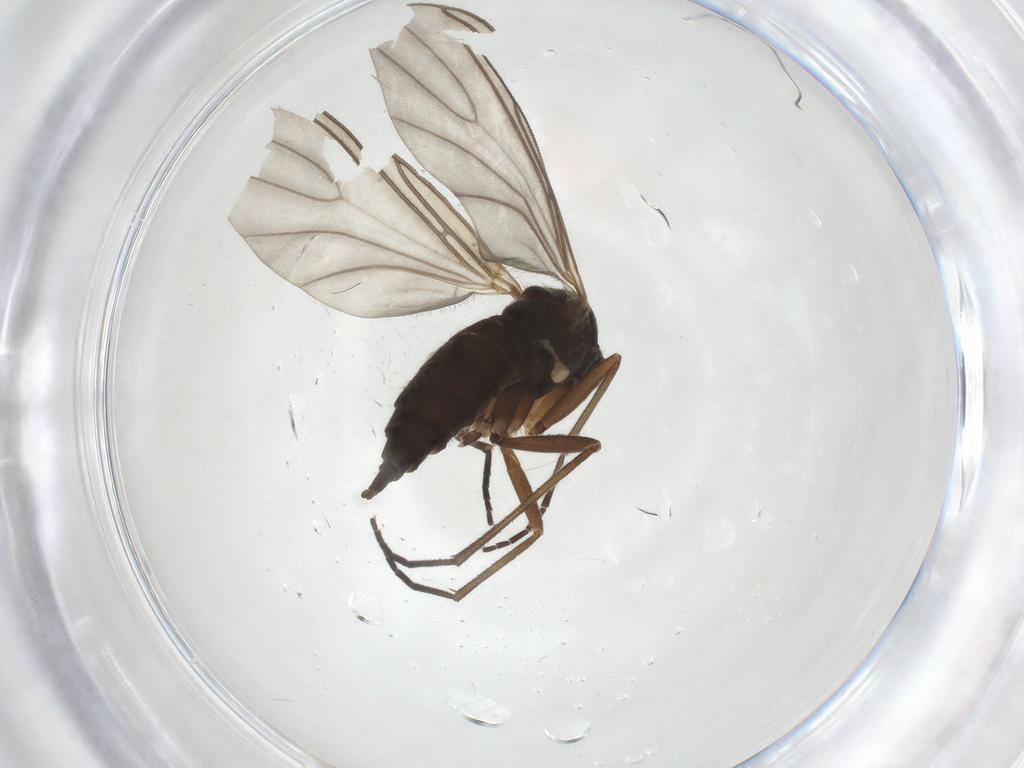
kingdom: Animalia
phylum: Arthropoda
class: Insecta
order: Diptera
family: Sciaridae
